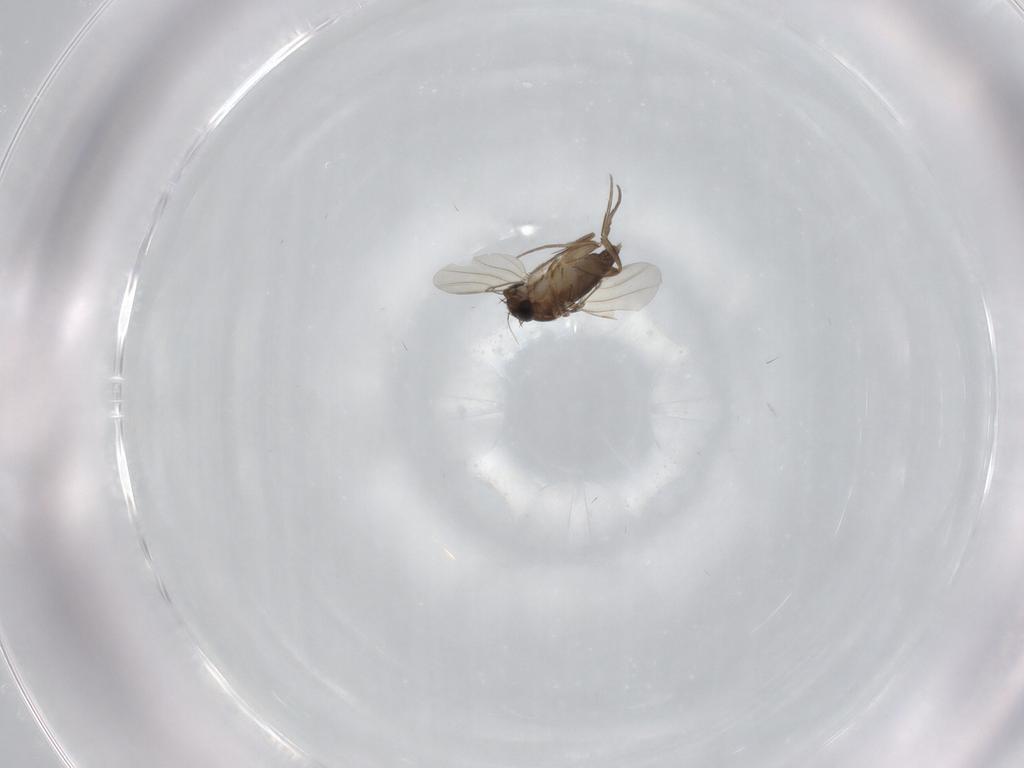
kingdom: Animalia
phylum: Arthropoda
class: Insecta
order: Diptera
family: Phoridae
